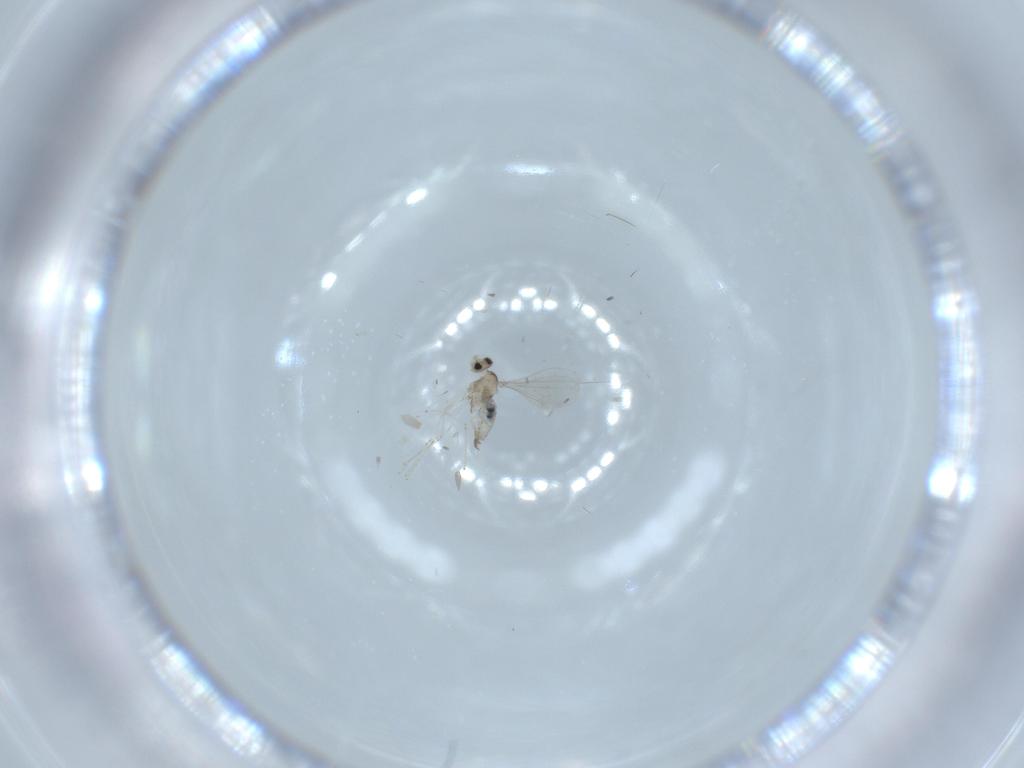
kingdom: Animalia
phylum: Arthropoda
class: Insecta
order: Diptera
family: Cecidomyiidae
